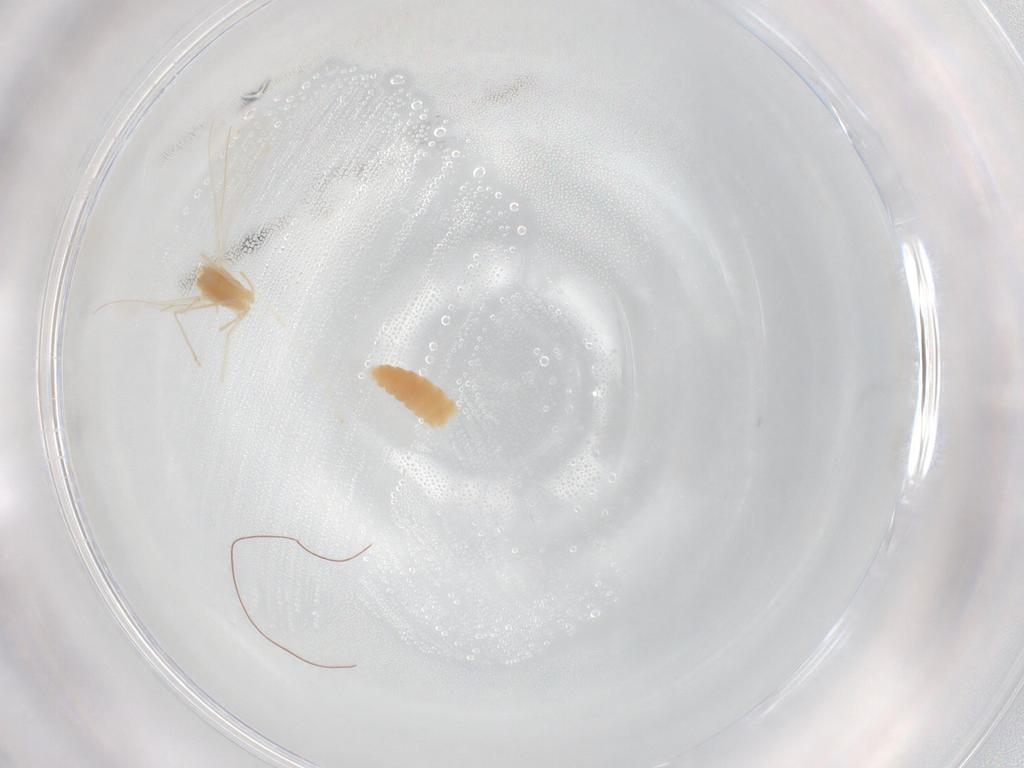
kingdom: Animalia
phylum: Arthropoda
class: Insecta
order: Diptera
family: Cecidomyiidae
